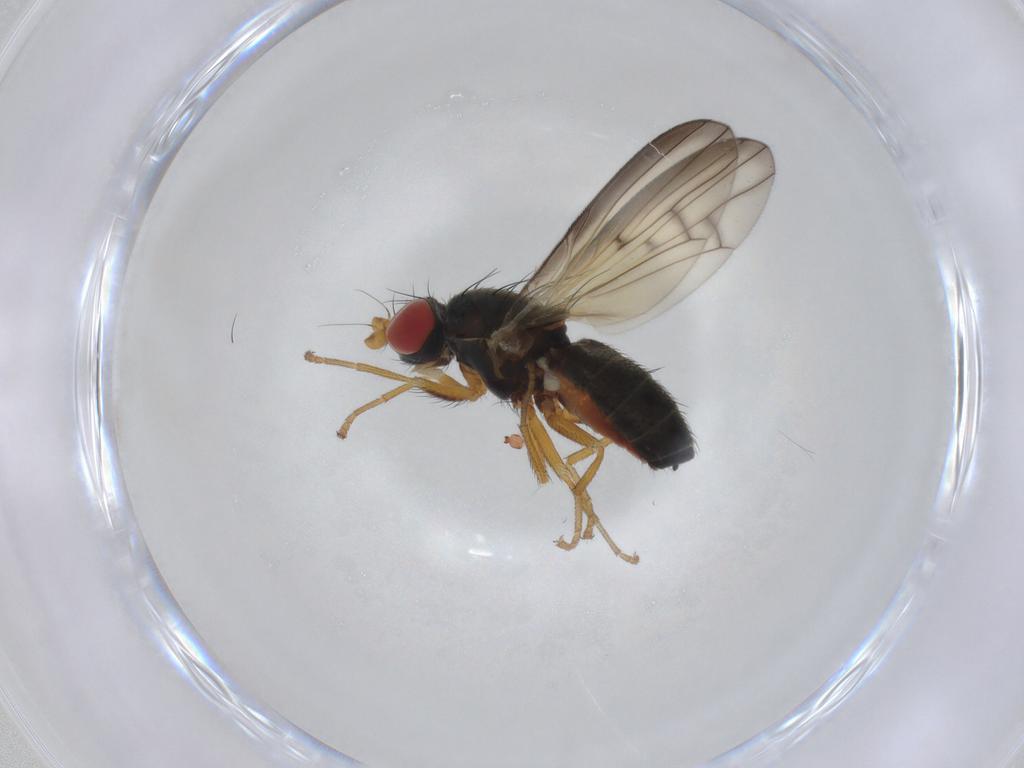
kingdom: Animalia
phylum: Arthropoda
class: Insecta
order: Diptera
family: Chamaemyiidae
